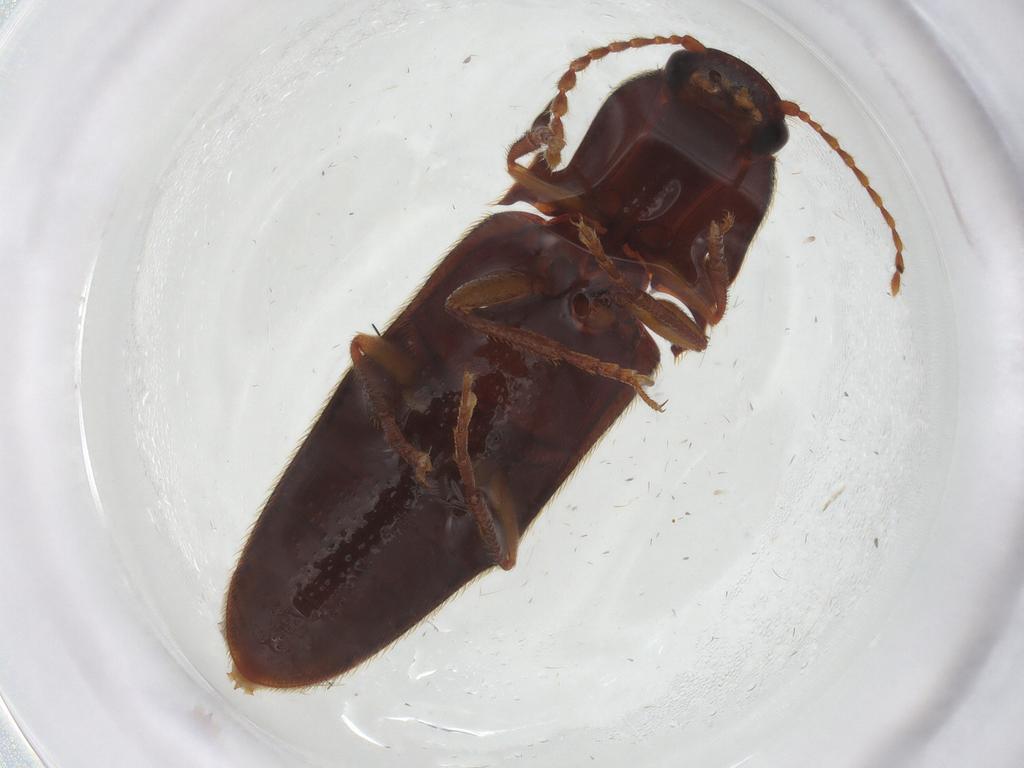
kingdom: Animalia
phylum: Arthropoda
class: Insecta
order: Coleoptera
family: Elateridae
